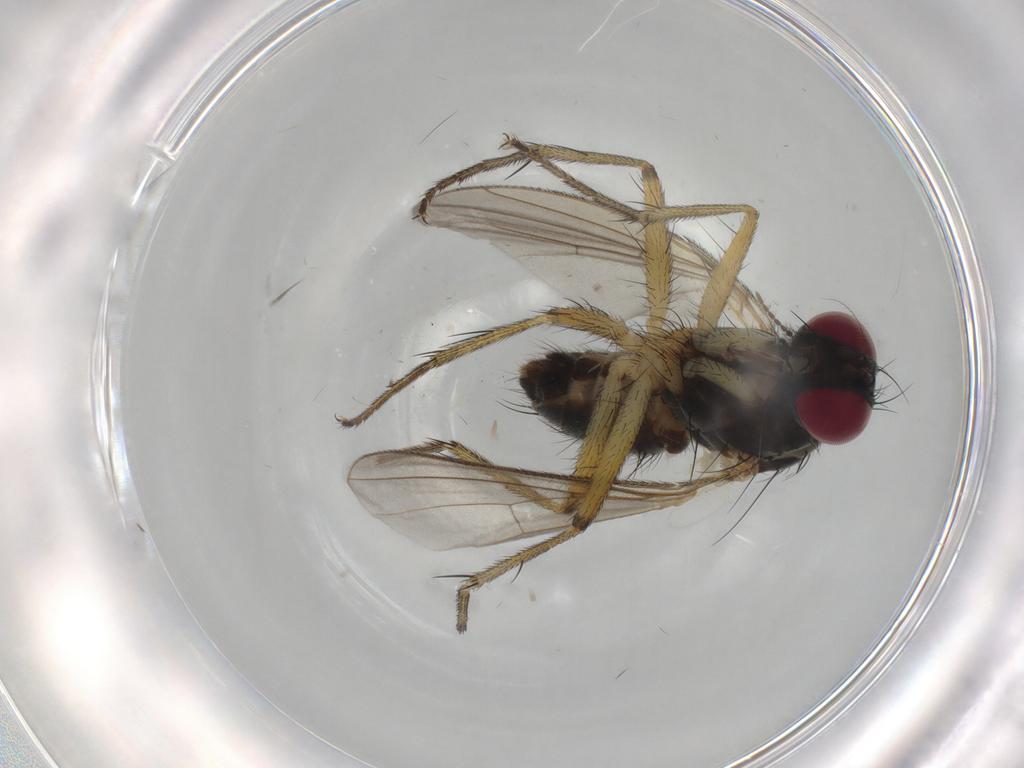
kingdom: Animalia
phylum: Arthropoda
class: Insecta
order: Diptera
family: Muscidae
